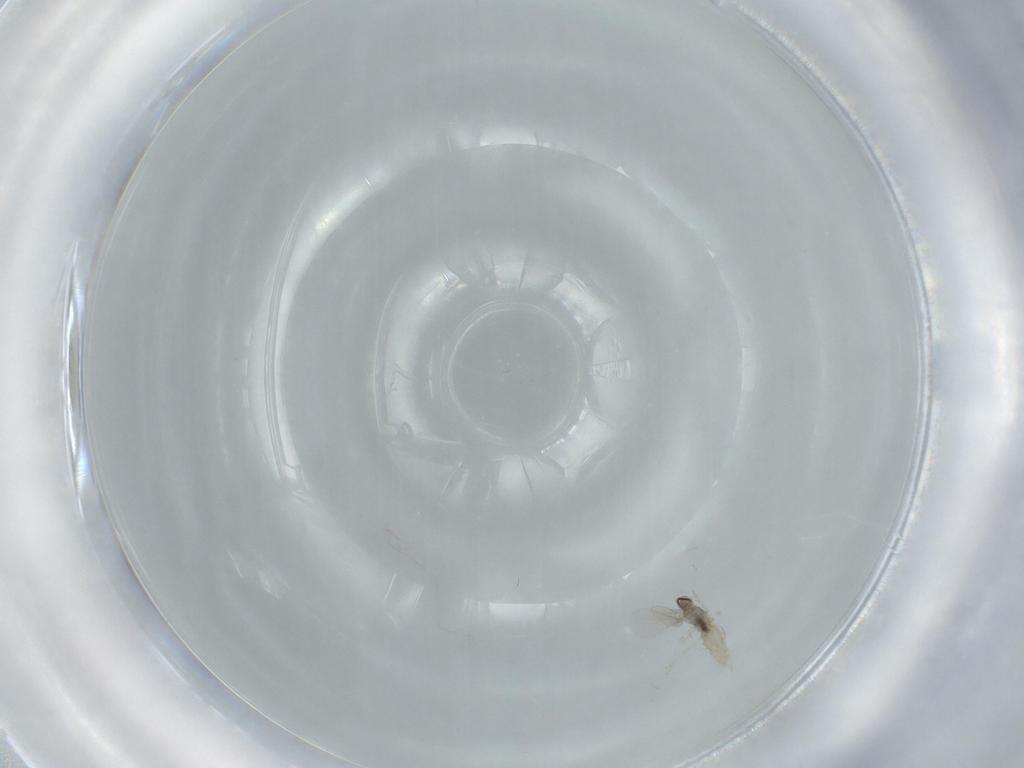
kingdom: Animalia
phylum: Arthropoda
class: Insecta
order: Diptera
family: Cecidomyiidae
